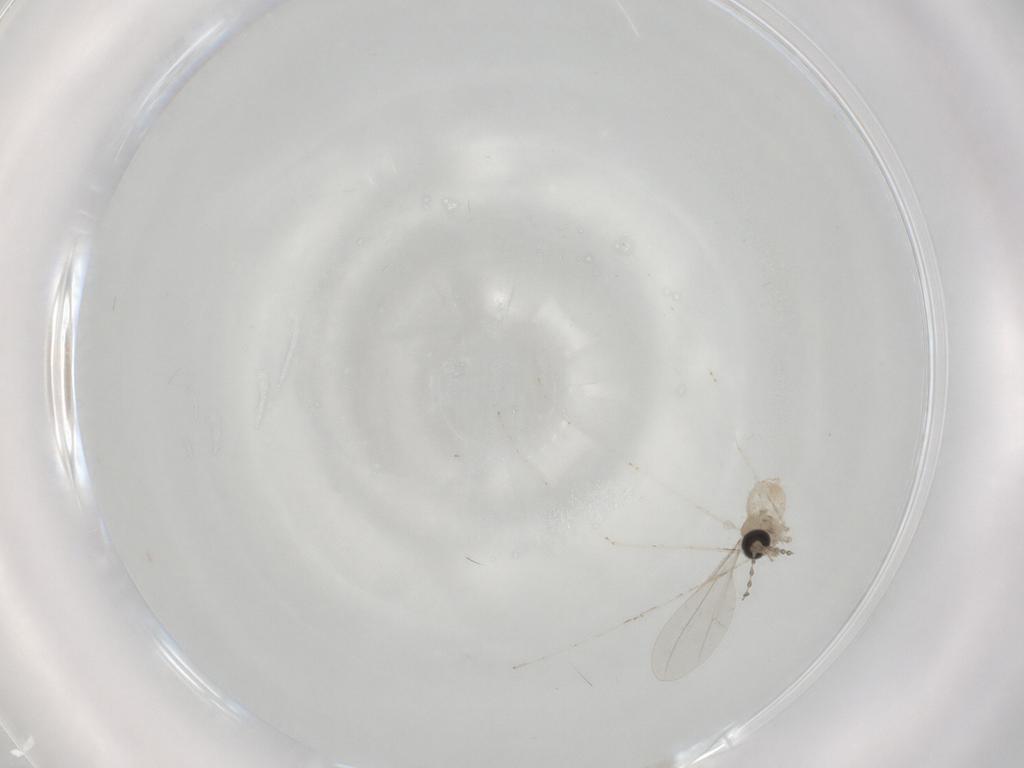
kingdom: Animalia
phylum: Arthropoda
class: Insecta
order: Diptera
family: Cecidomyiidae
